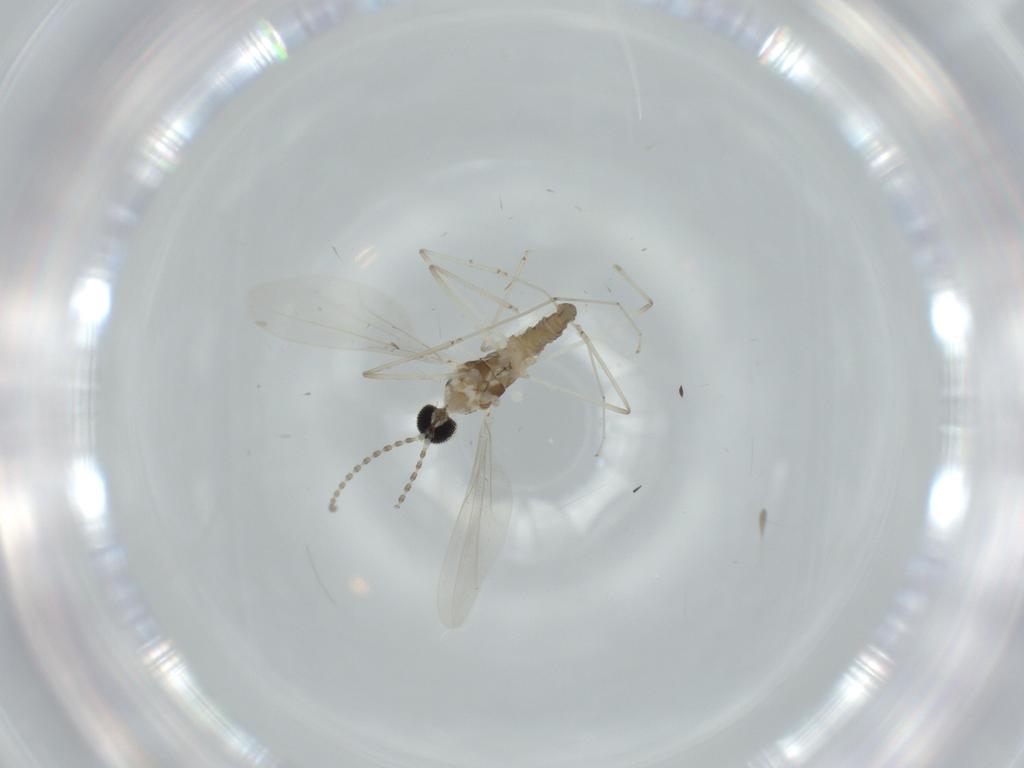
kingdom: Animalia
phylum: Arthropoda
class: Insecta
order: Diptera
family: Cecidomyiidae
